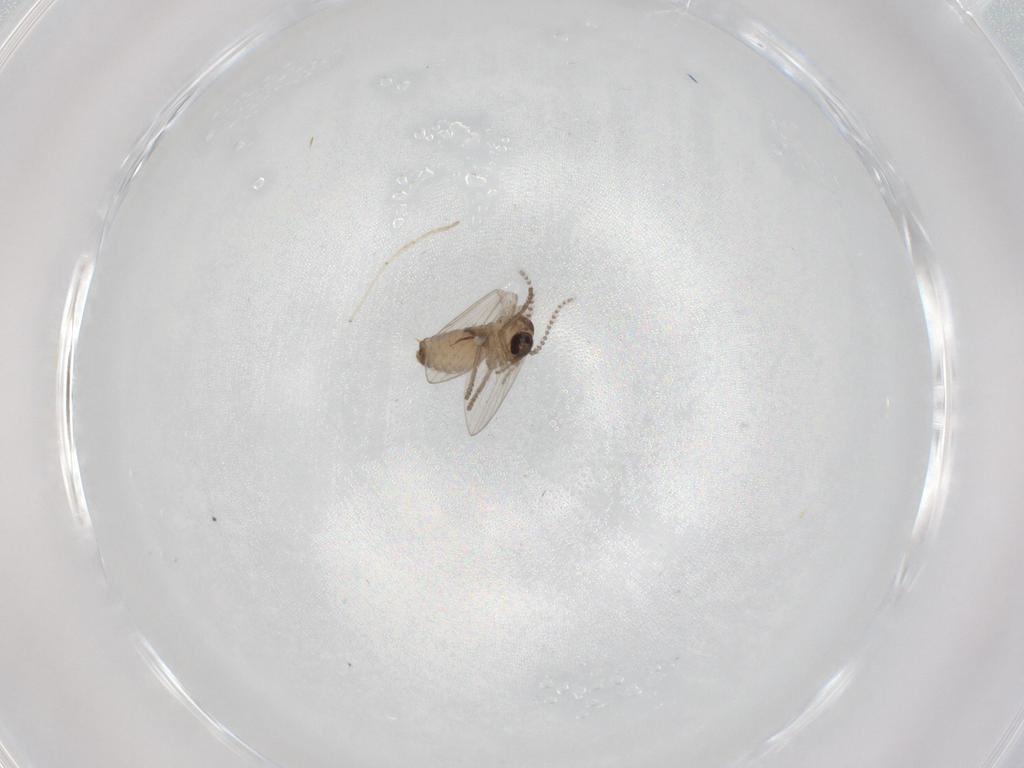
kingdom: Animalia
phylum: Arthropoda
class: Insecta
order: Diptera
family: Psychodidae
